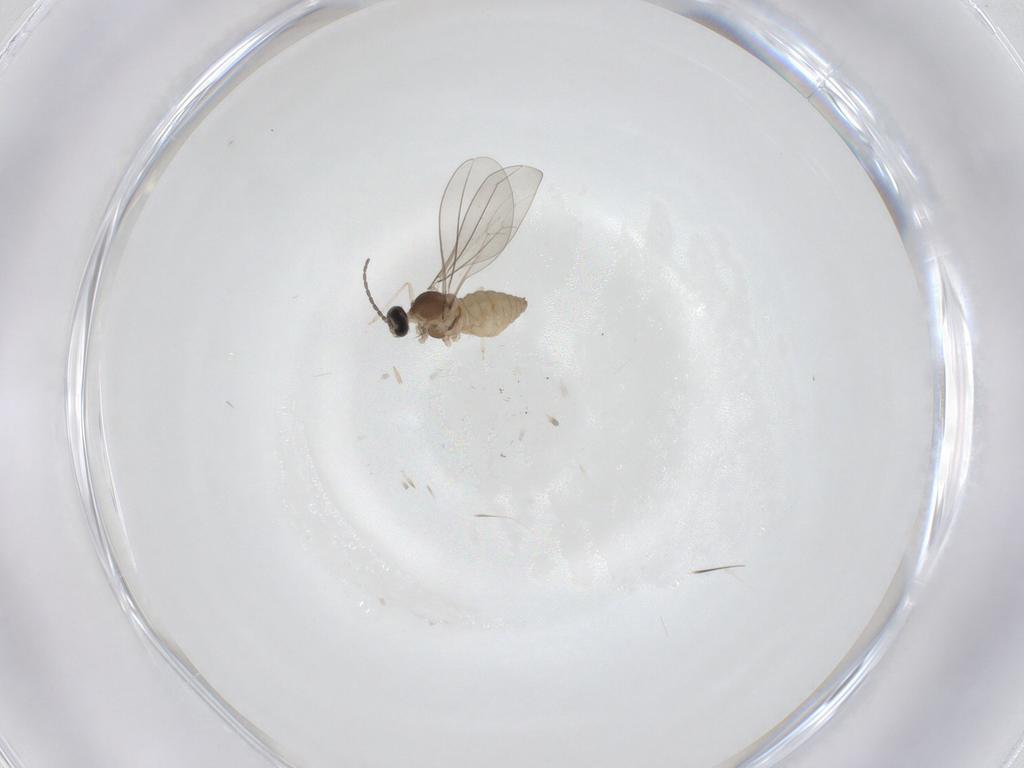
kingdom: Animalia
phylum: Arthropoda
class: Insecta
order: Diptera
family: Cecidomyiidae
